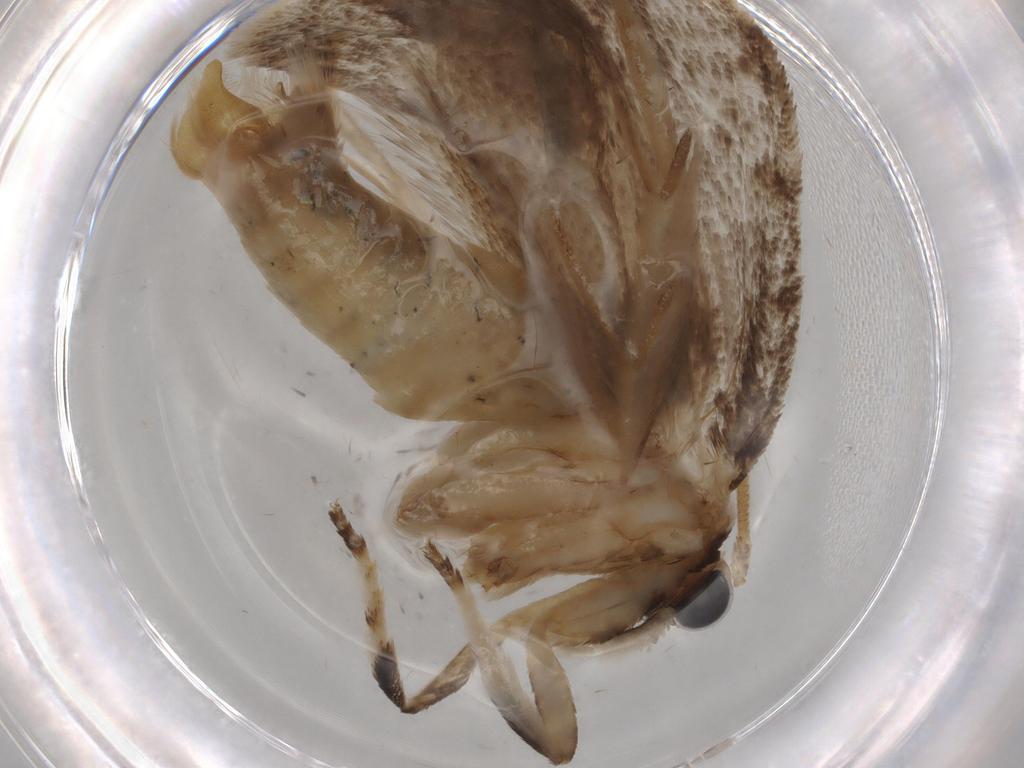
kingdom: Animalia
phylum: Arthropoda
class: Insecta
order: Lepidoptera
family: Tineidae
